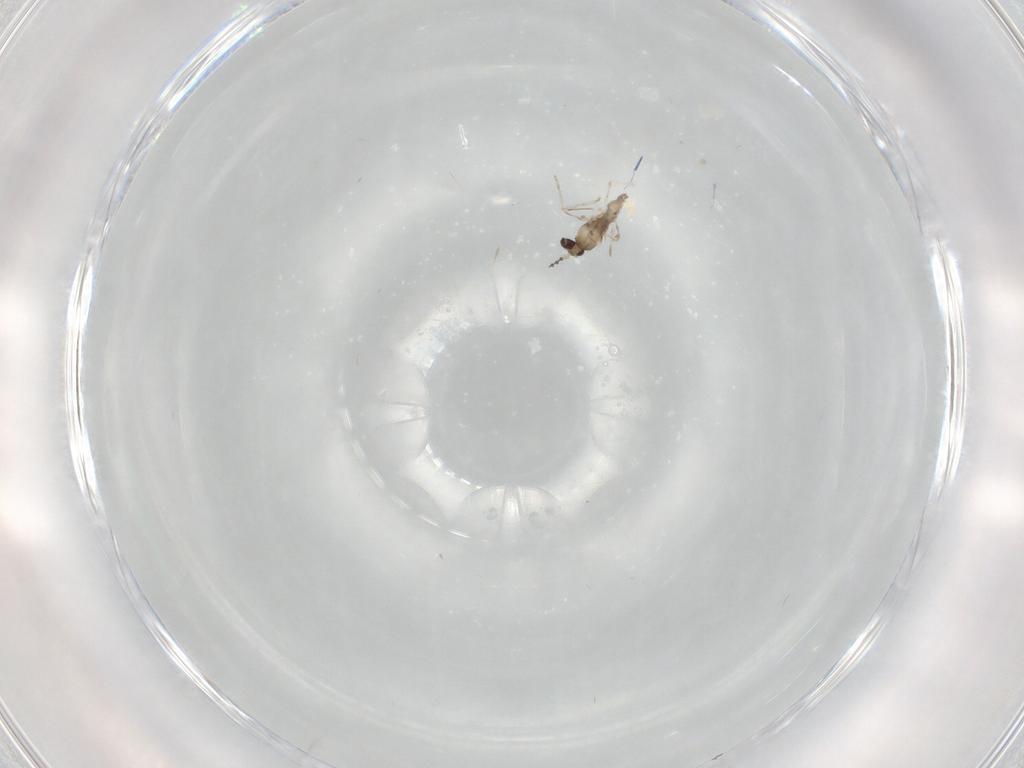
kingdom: Animalia
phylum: Arthropoda
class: Insecta
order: Diptera
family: Cecidomyiidae
